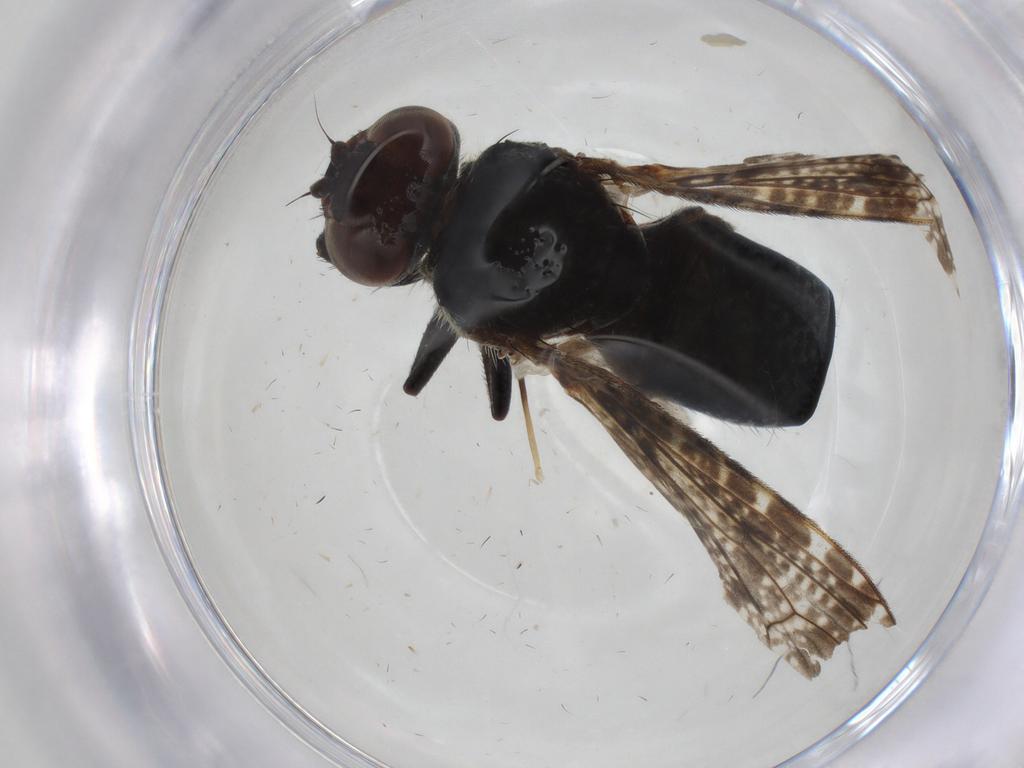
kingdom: Animalia
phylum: Arthropoda
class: Insecta
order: Diptera
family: Platystomatidae
